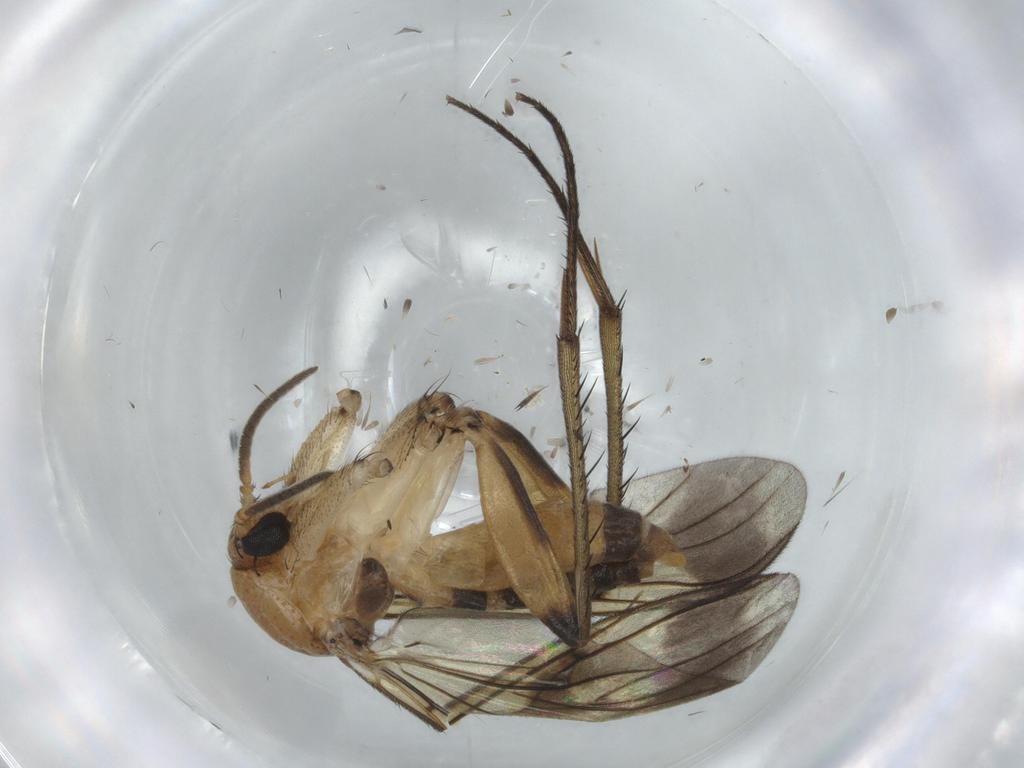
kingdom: Animalia
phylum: Arthropoda
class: Insecta
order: Diptera
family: Mycetophilidae
